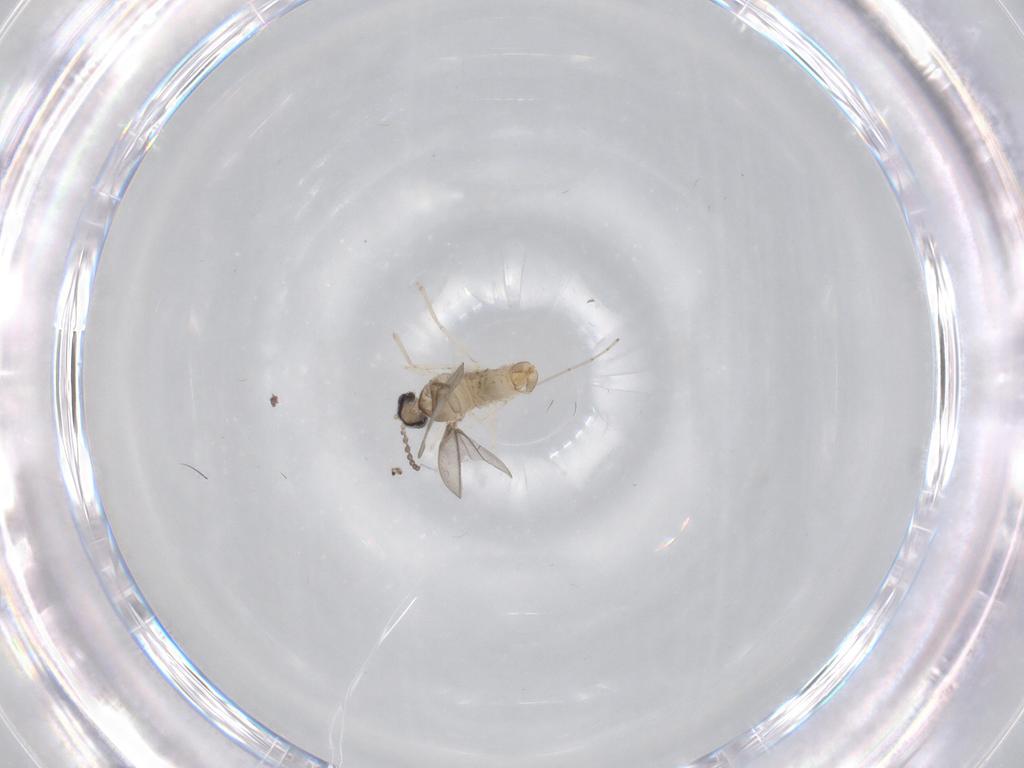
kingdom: Animalia
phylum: Arthropoda
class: Insecta
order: Diptera
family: Cecidomyiidae
